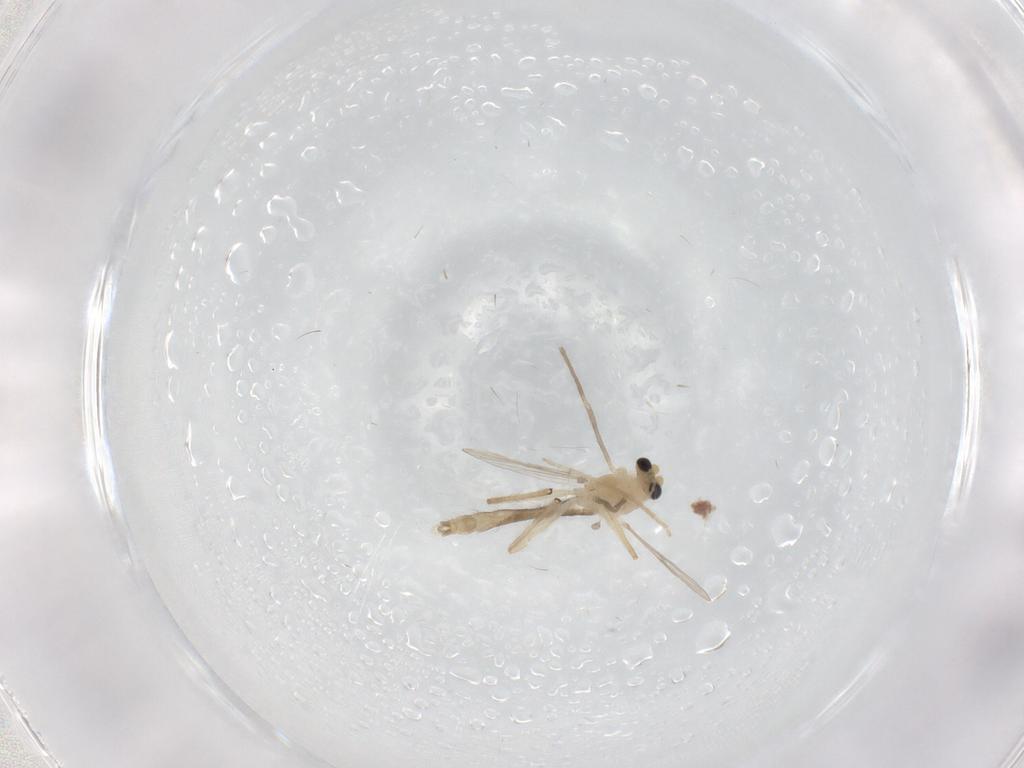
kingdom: Animalia
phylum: Arthropoda
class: Insecta
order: Diptera
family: Chironomidae
